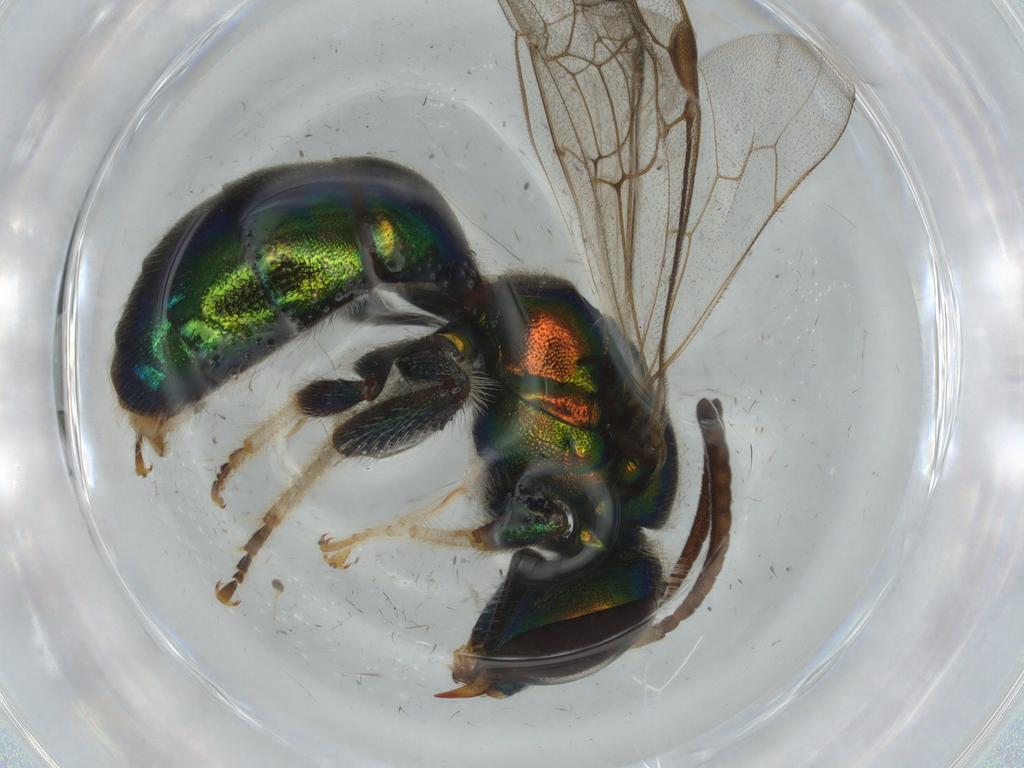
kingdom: Animalia
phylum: Arthropoda
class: Insecta
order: Hymenoptera
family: Halictidae
